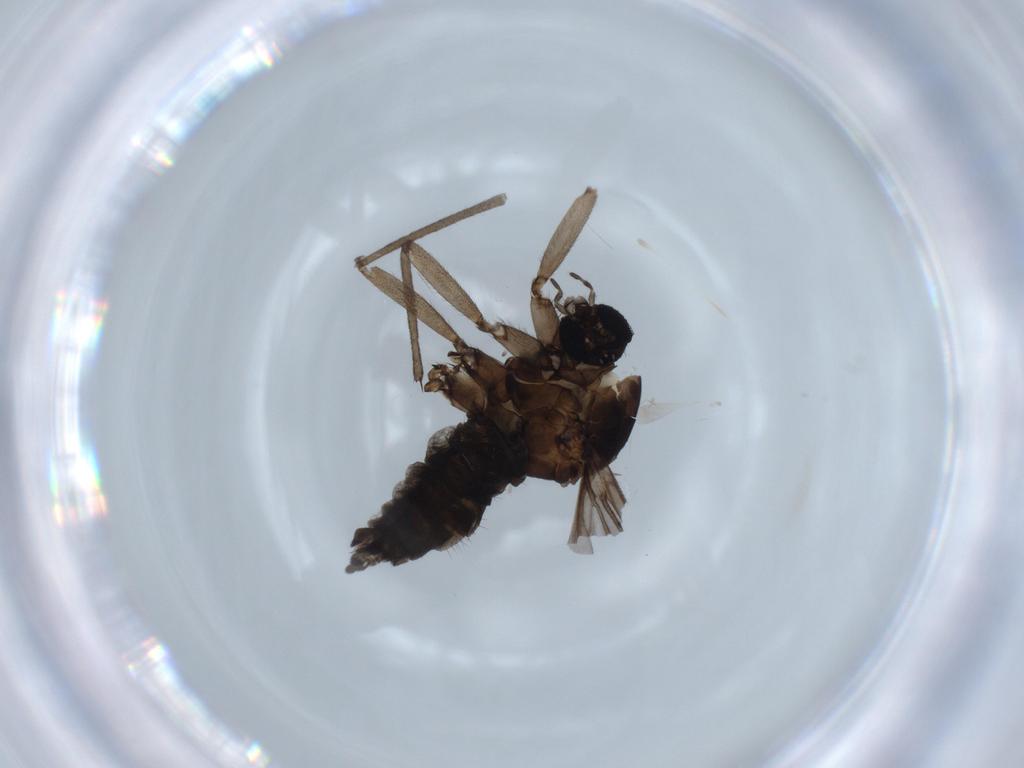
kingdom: Animalia
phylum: Arthropoda
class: Insecta
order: Diptera
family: Sciaridae
